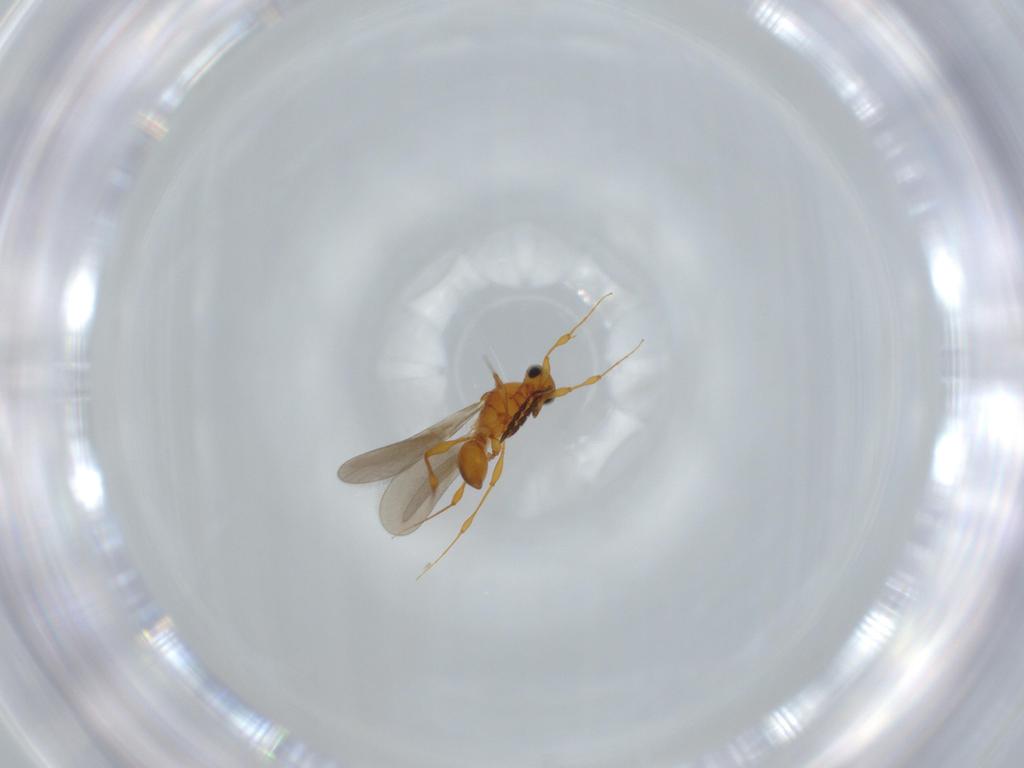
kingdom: Animalia
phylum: Arthropoda
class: Insecta
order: Hymenoptera
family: Platygastridae
